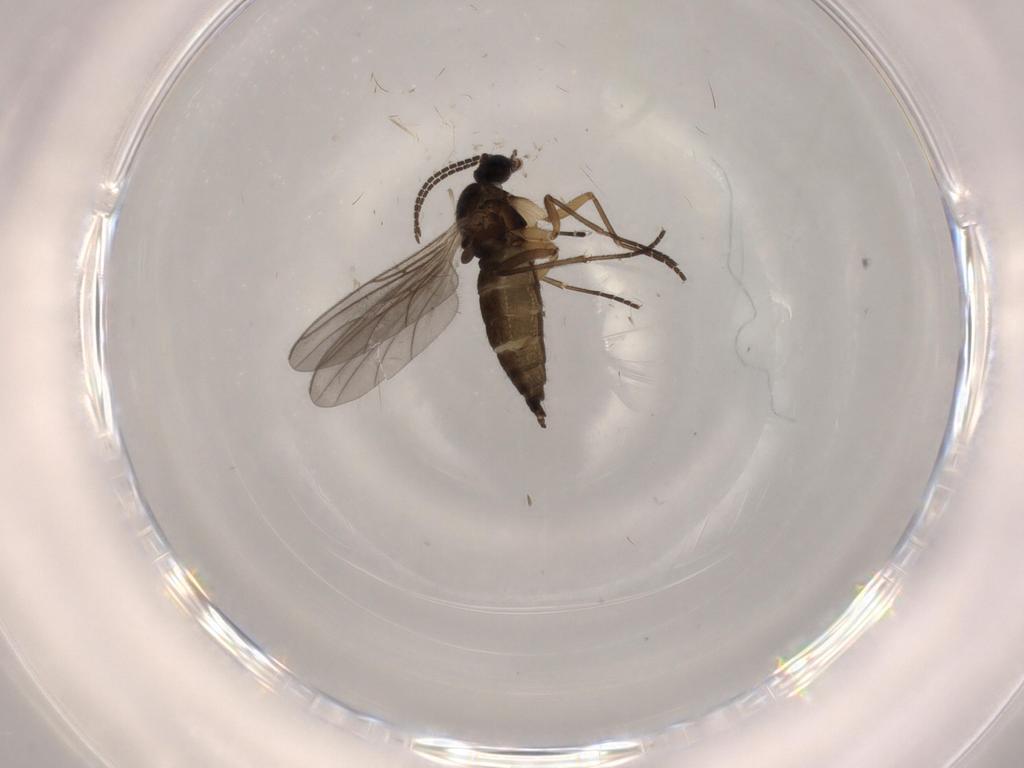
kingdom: Animalia
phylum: Arthropoda
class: Insecta
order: Diptera
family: Sciaridae
